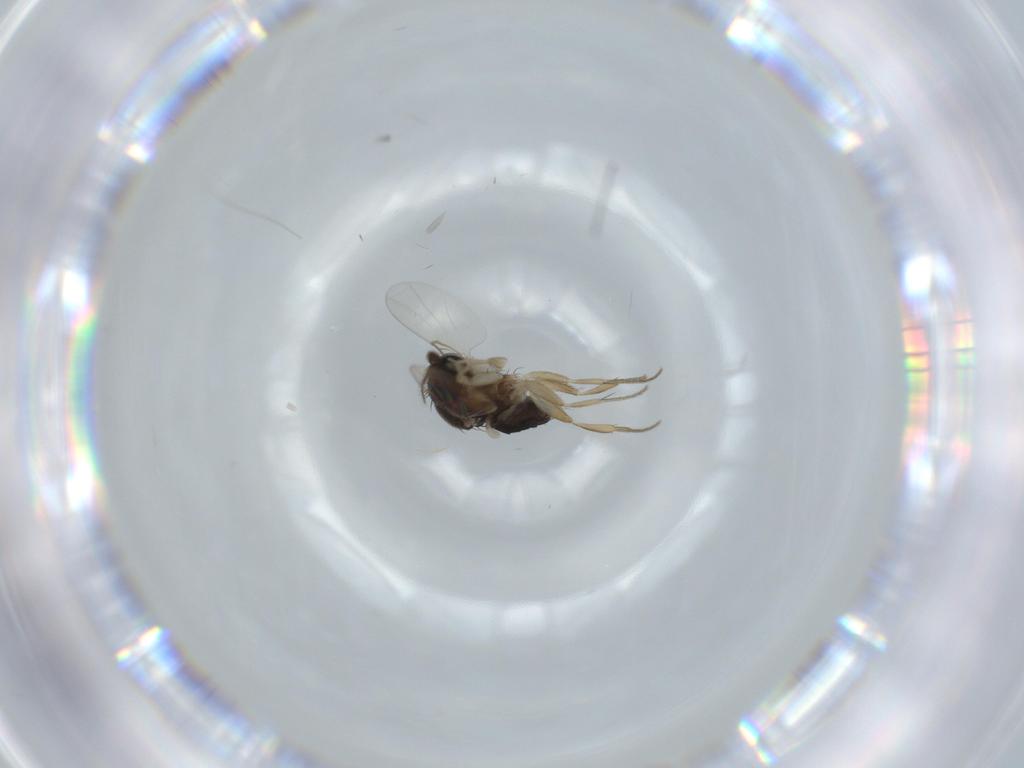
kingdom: Animalia
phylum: Arthropoda
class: Insecta
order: Diptera
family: Phoridae
